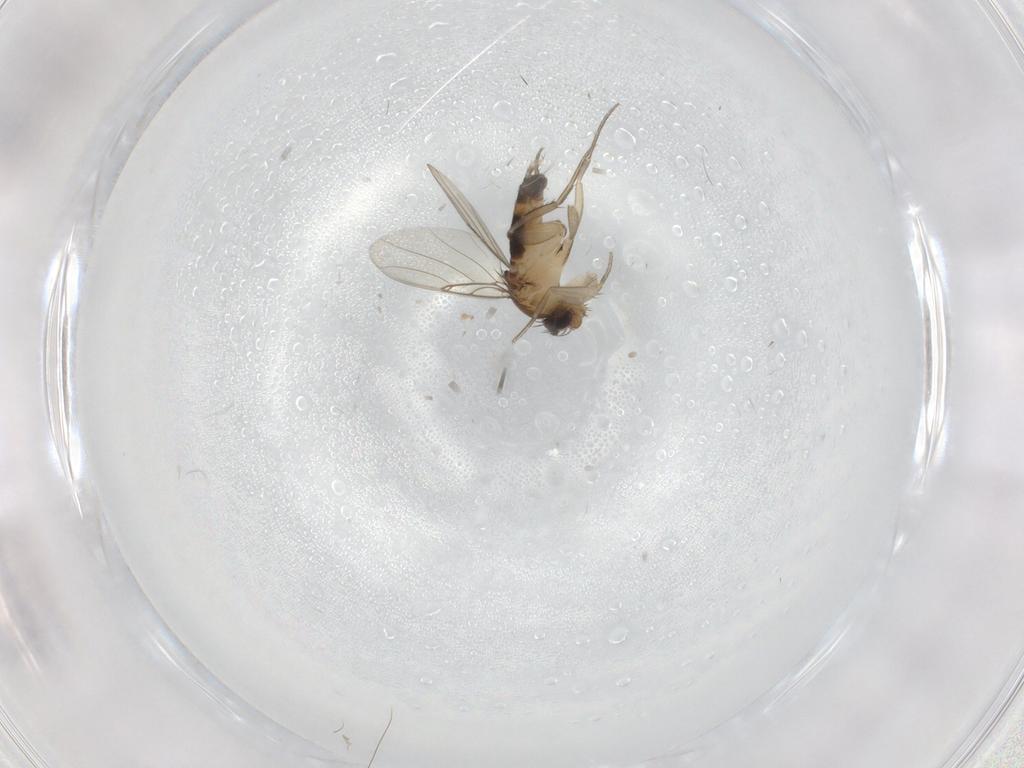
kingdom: Animalia
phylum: Arthropoda
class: Insecta
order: Diptera
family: Phoridae
